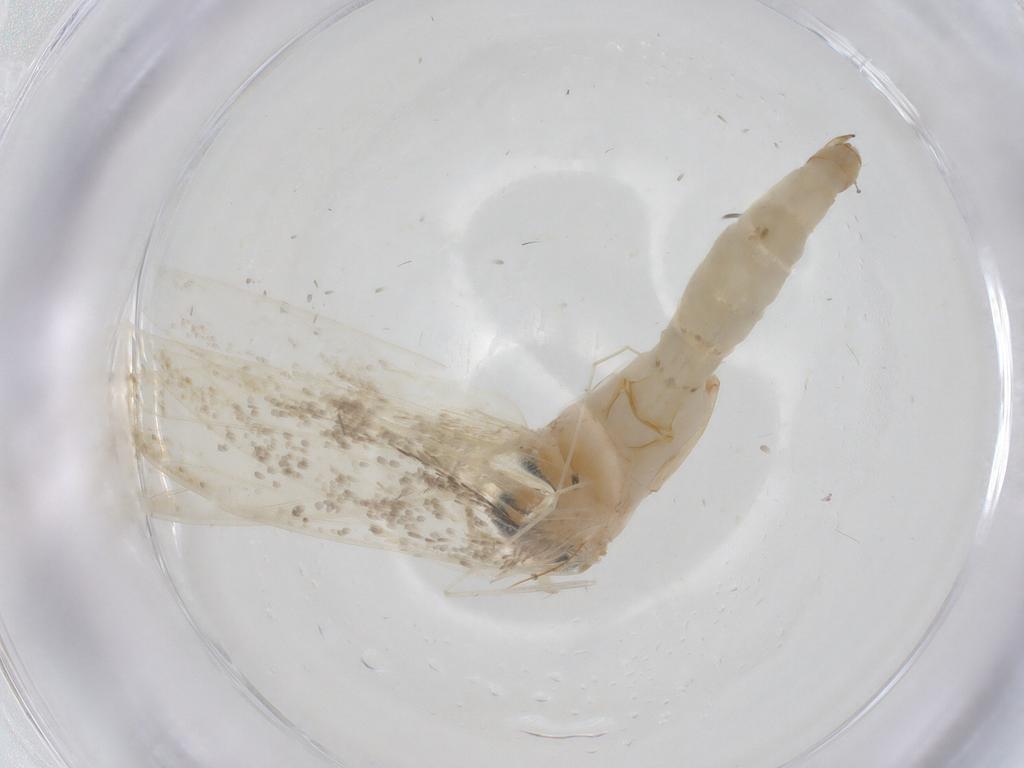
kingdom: Animalia
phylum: Arthropoda
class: Insecta
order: Lepidoptera
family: Tineidae
